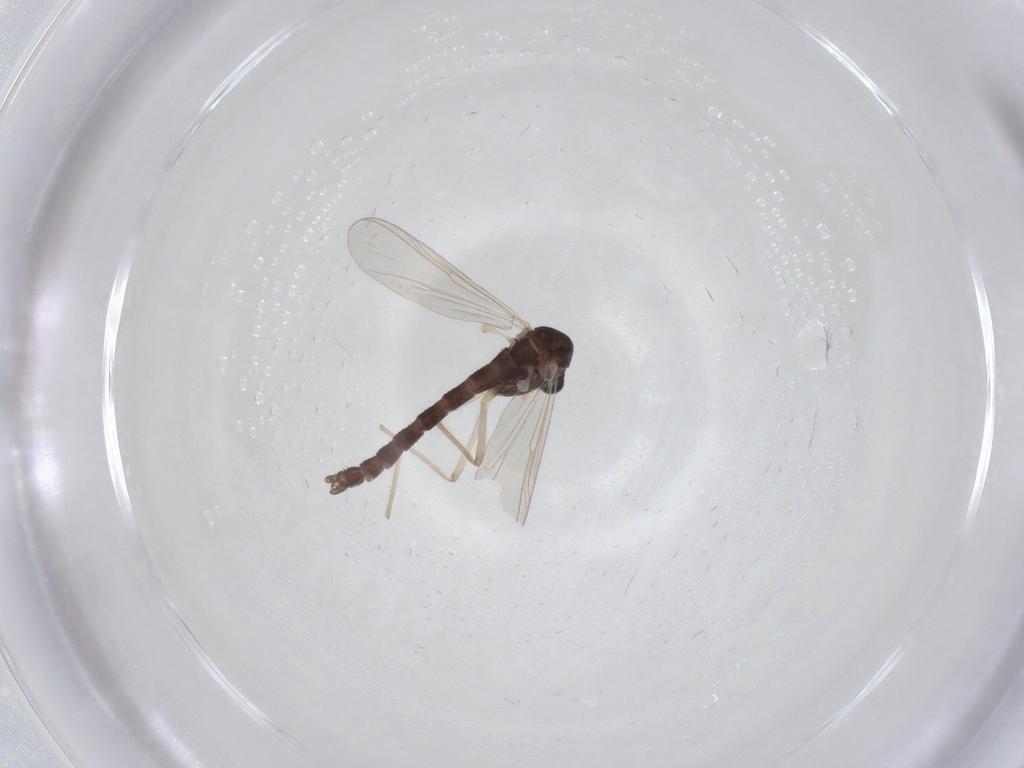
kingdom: Animalia
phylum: Arthropoda
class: Insecta
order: Diptera
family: Chironomidae
